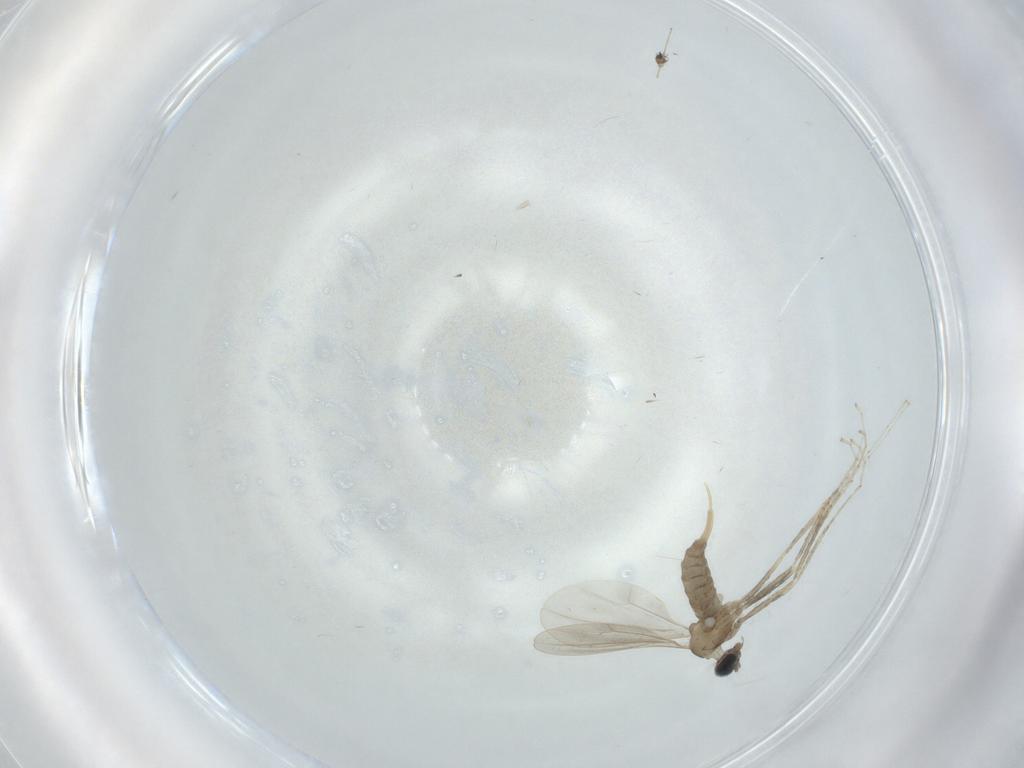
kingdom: Animalia
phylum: Arthropoda
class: Insecta
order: Diptera
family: Cecidomyiidae
